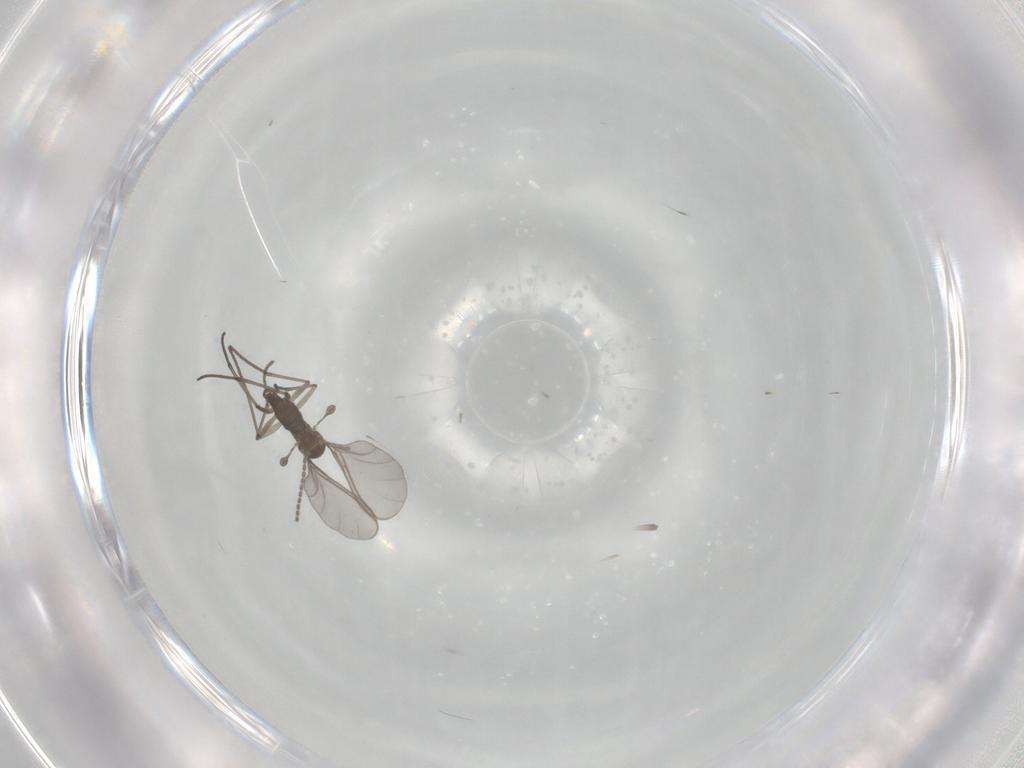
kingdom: Animalia
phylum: Arthropoda
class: Insecta
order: Diptera
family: Sciaridae
